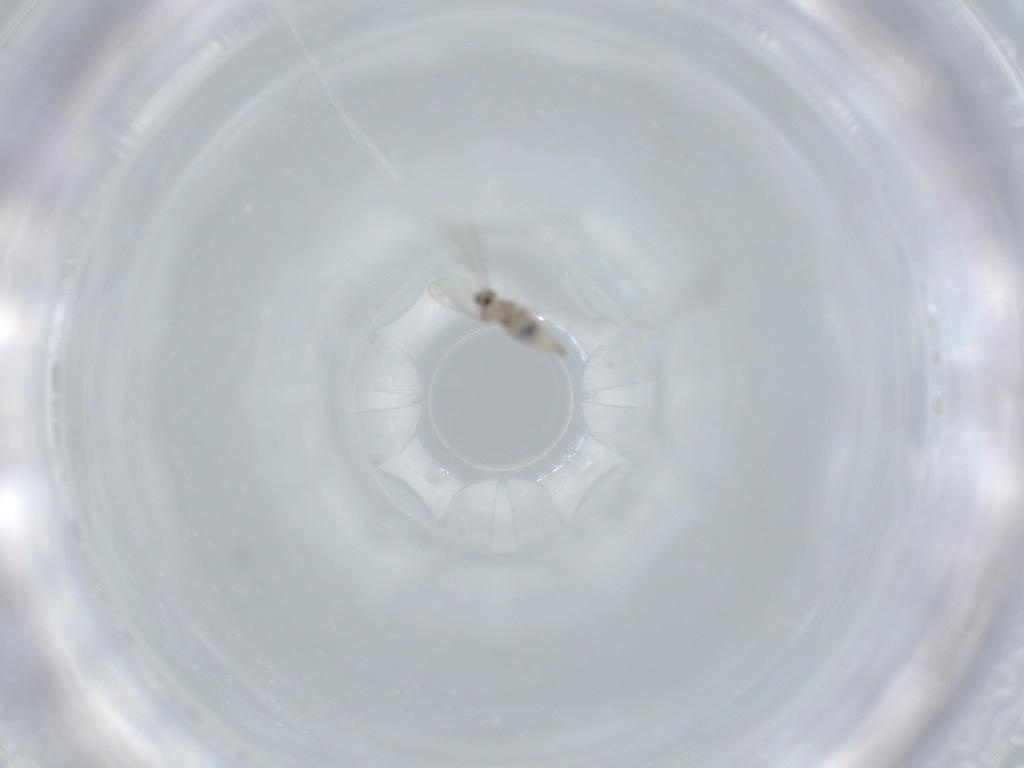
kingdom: Animalia
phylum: Arthropoda
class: Insecta
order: Diptera
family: Cecidomyiidae
